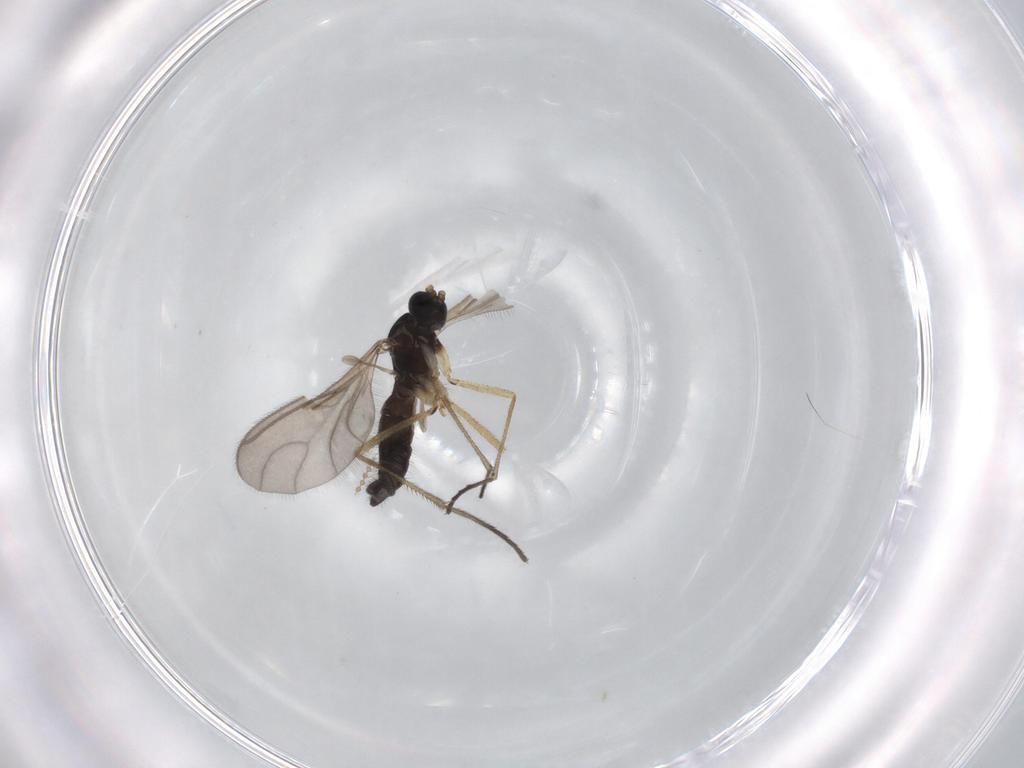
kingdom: Animalia
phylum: Arthropoda
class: Insecta
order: Diptera
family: Sciaridae
